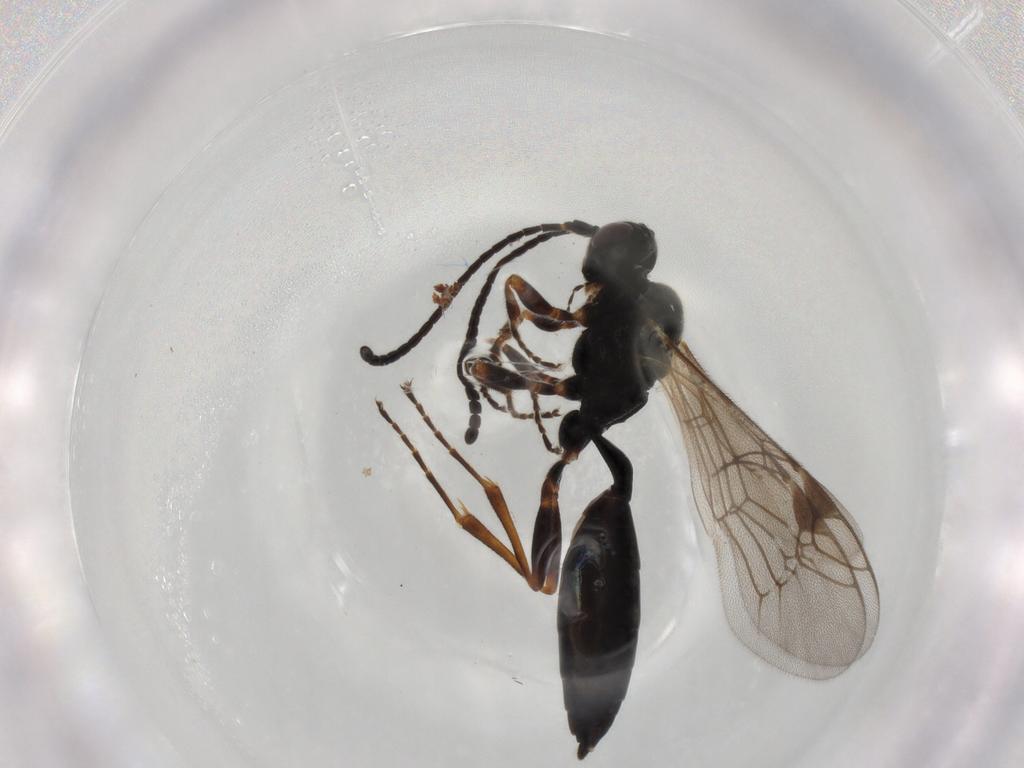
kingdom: Animalia
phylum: Arthropoda
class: Insecta
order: Hymenoptera
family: Ichneumonidae
